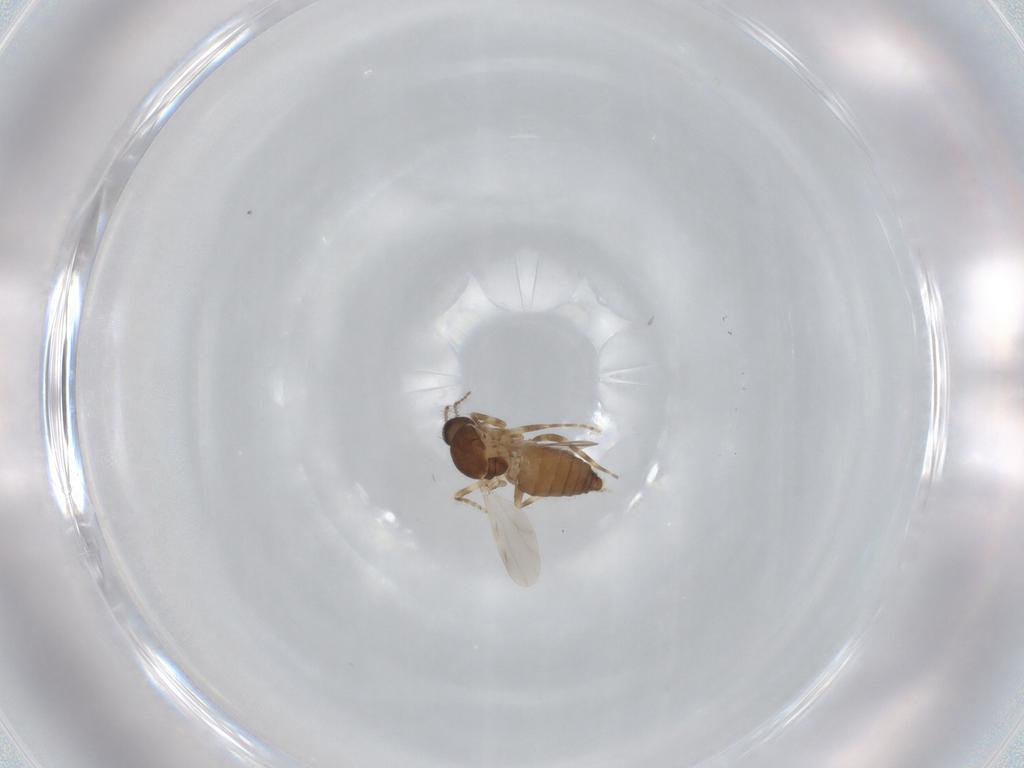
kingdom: Animalia
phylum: Arthropoda
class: Insecta
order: Diptera
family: Ceratopogonidae
